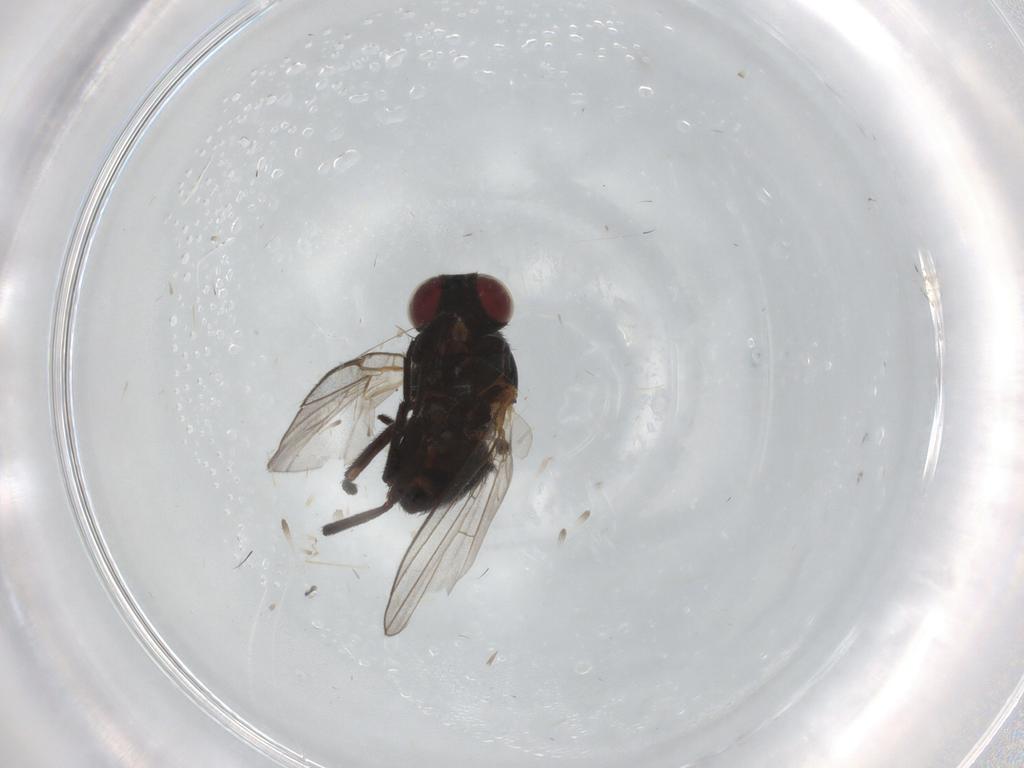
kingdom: Animalia
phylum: Arthropoda
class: Insecta
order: Diptera
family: Agromyzidae
